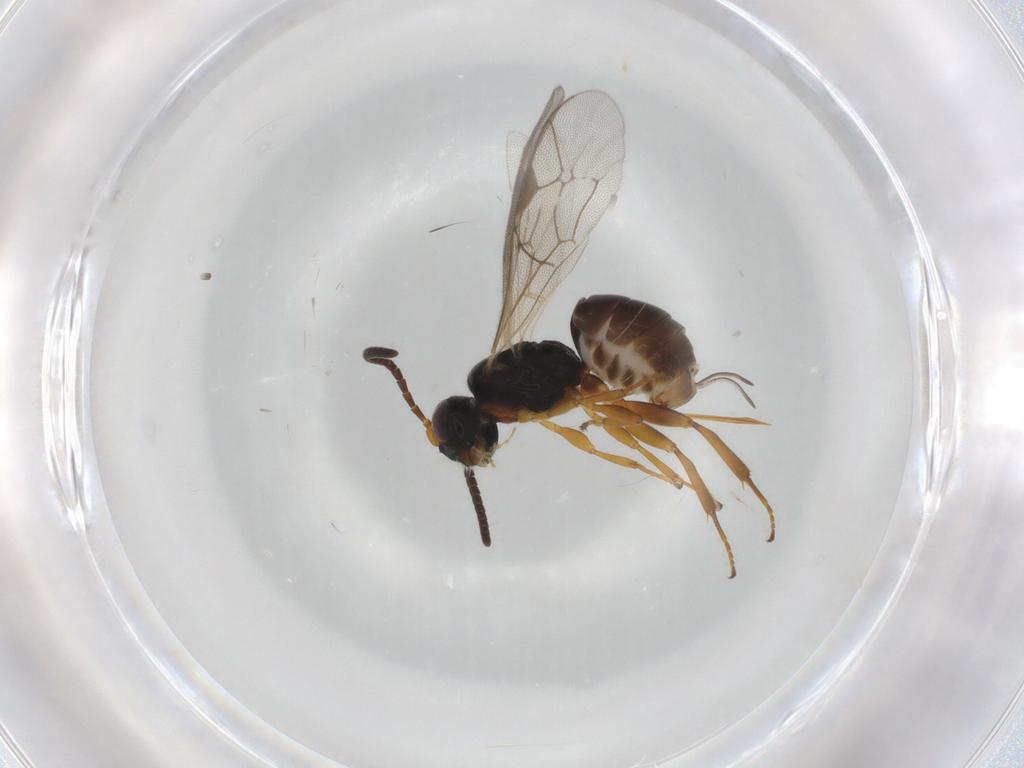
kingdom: Animalia
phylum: Arthropoda
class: Insecta
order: Hymenoptera
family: Ichneumonidae
